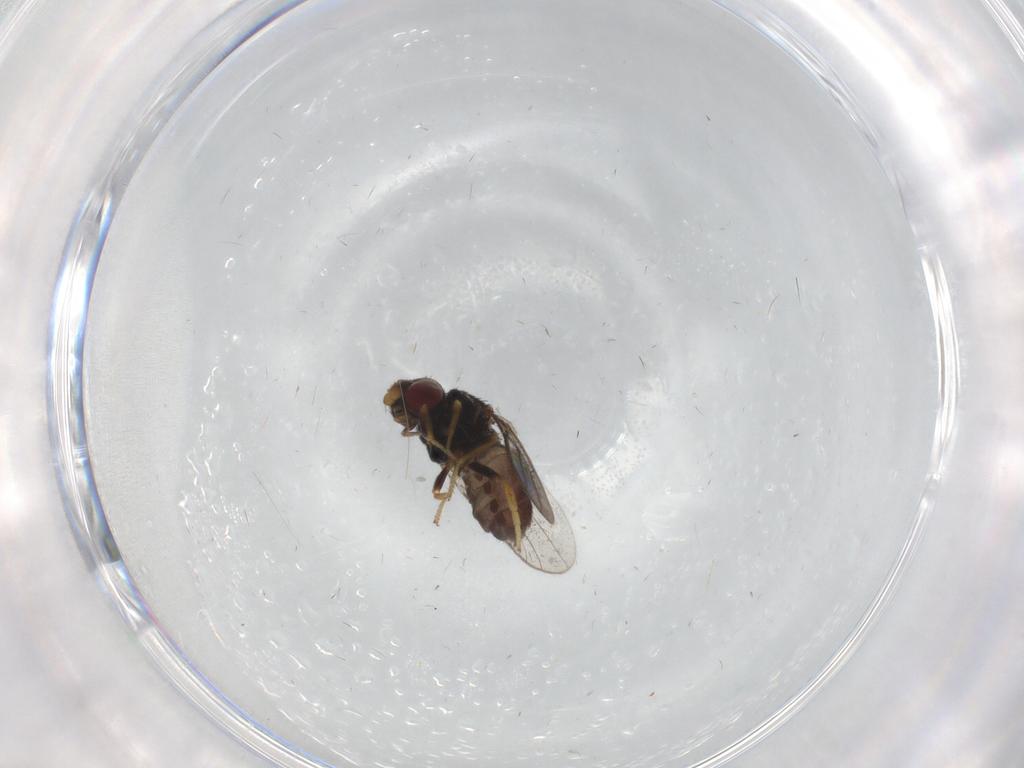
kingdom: Animalia
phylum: Arthropoda
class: Insecta
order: Diptera
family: Chloropidae
